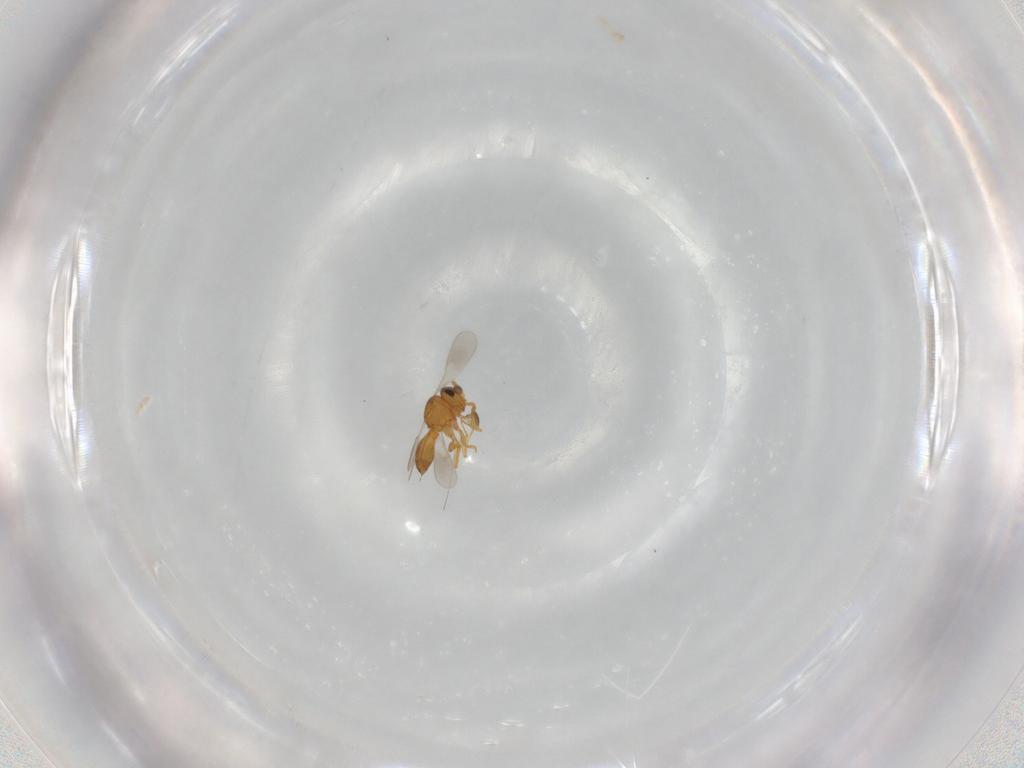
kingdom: Animalia
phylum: Arthropoda
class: Insecta
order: Hymenoptera
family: Scelionidae
